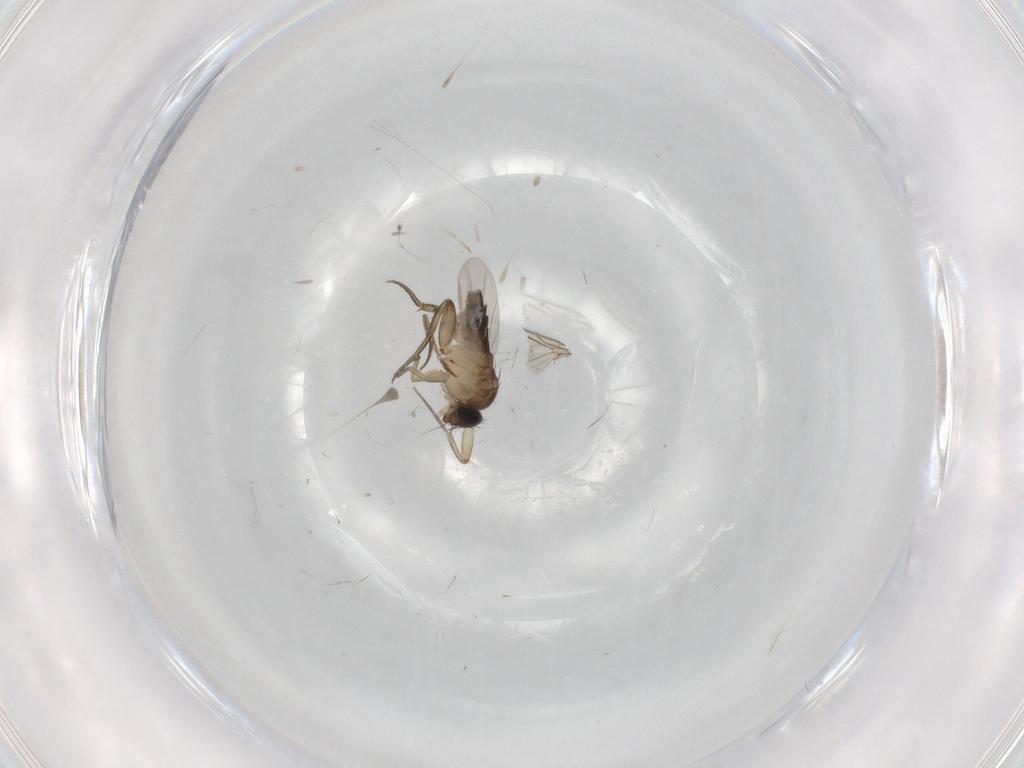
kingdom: Animalia
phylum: Arthropoda
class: Insecta
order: Diptera
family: Phoridae
